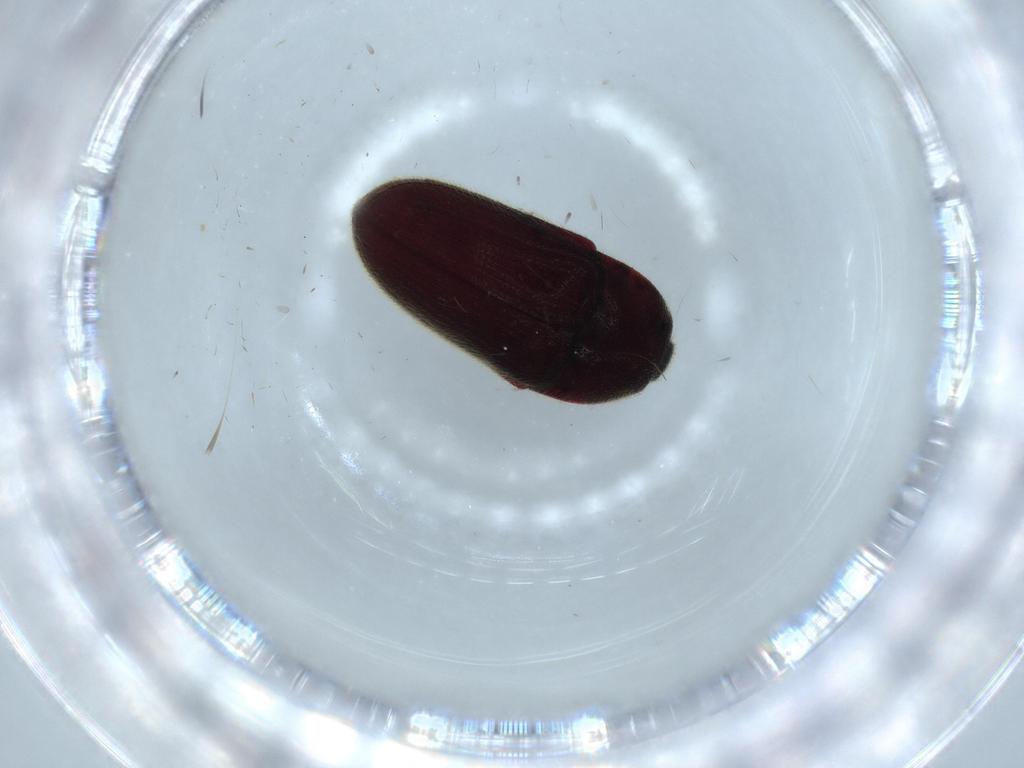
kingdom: Animalia
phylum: Arthropoda
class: Insecta
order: Coleoptera
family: Throscidae
